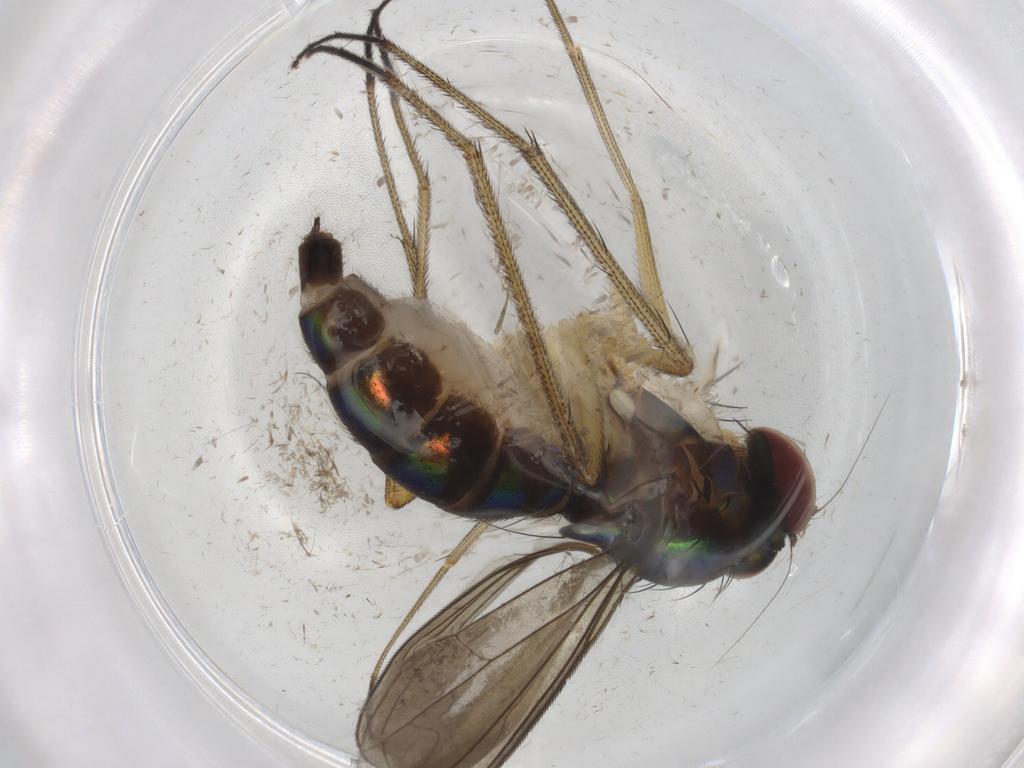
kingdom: Animalia
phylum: Arthropoda
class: Insecta
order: Diptera
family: Dolichopodidae
